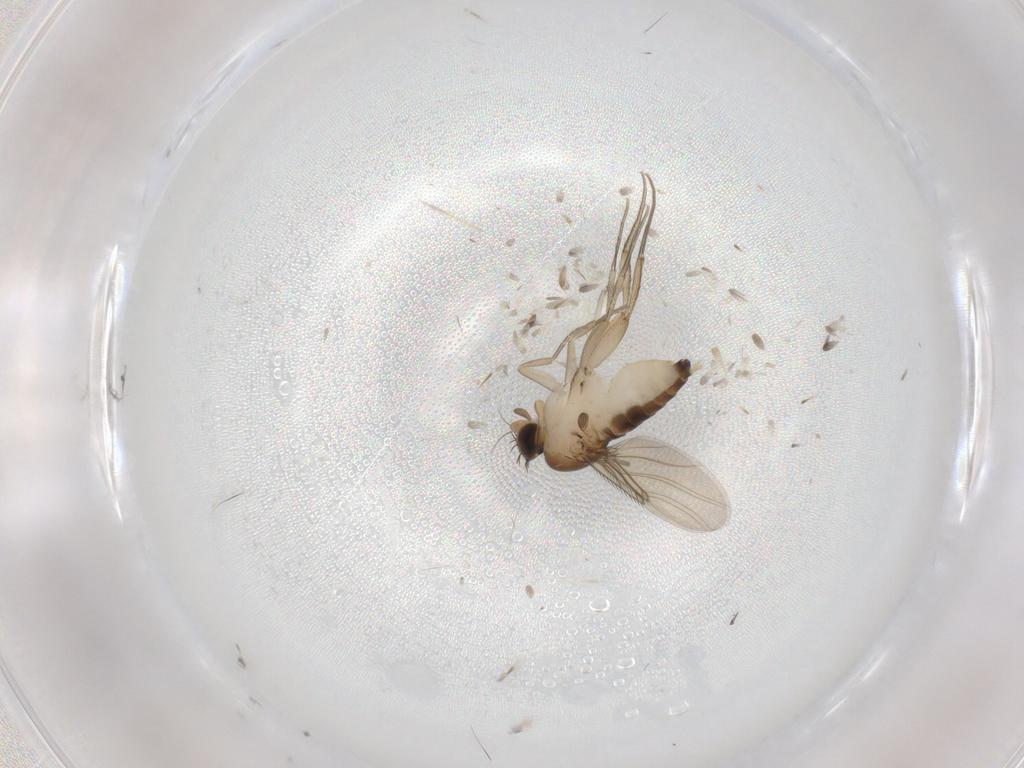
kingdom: Animalia
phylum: Arthropoda
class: Insecta
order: Diptera
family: Phoridae
